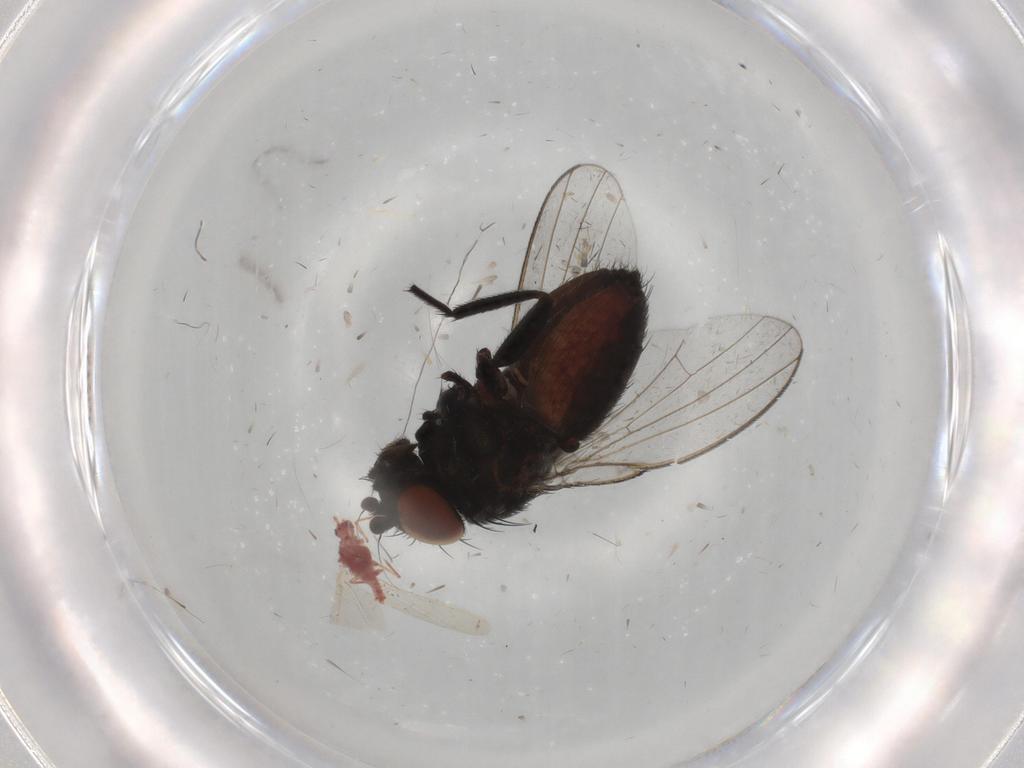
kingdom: Animalia
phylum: Arthropoda
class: Insecta
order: Diptera
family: Milichiidae
